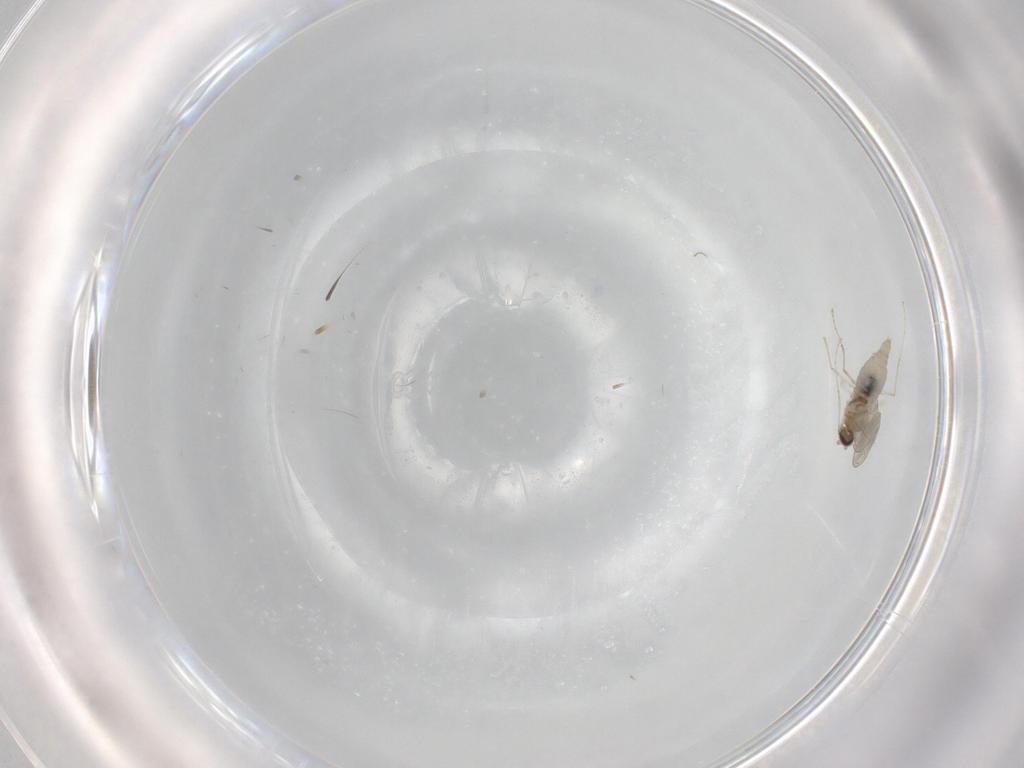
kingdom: Animalia
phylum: Arthropoda
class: Insecta
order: Diptera
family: Cecidomyiidae
